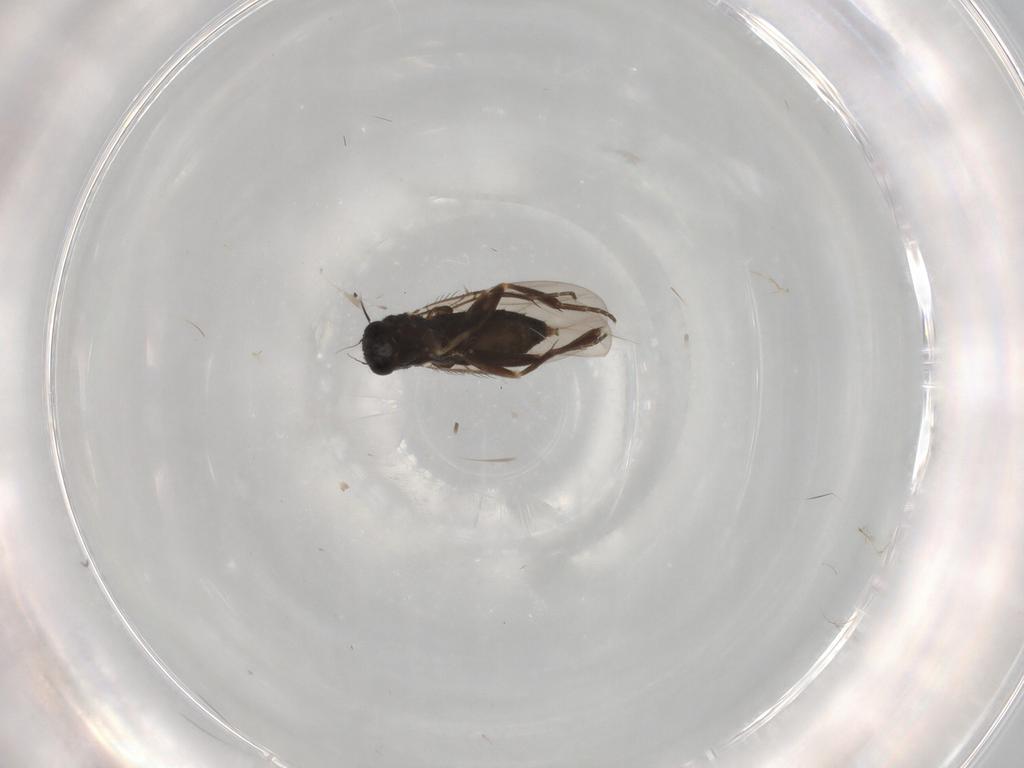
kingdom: Animalia
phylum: Arthropoda
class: Insecta
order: Diptera
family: Phoridae
